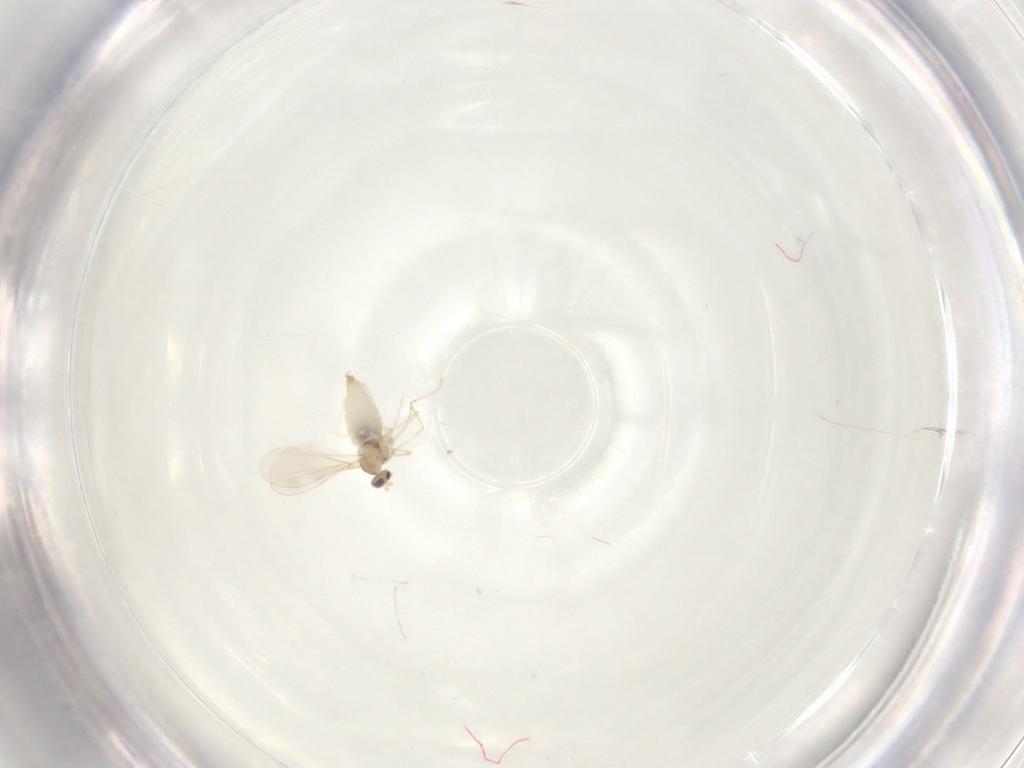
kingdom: Animalia
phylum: Arthropoda
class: Insecta
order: Diptera
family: Cecidomyiidae
